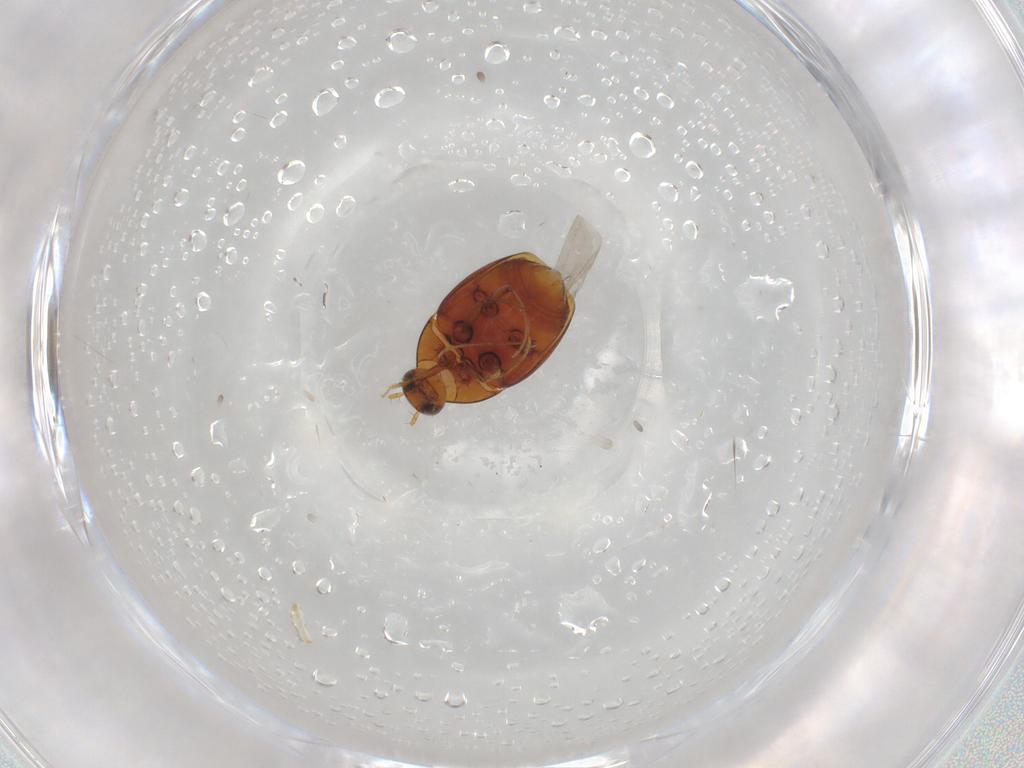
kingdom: Animalia
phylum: Arthropoda
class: Insecta
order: Coleoptera
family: Staphylinidae
